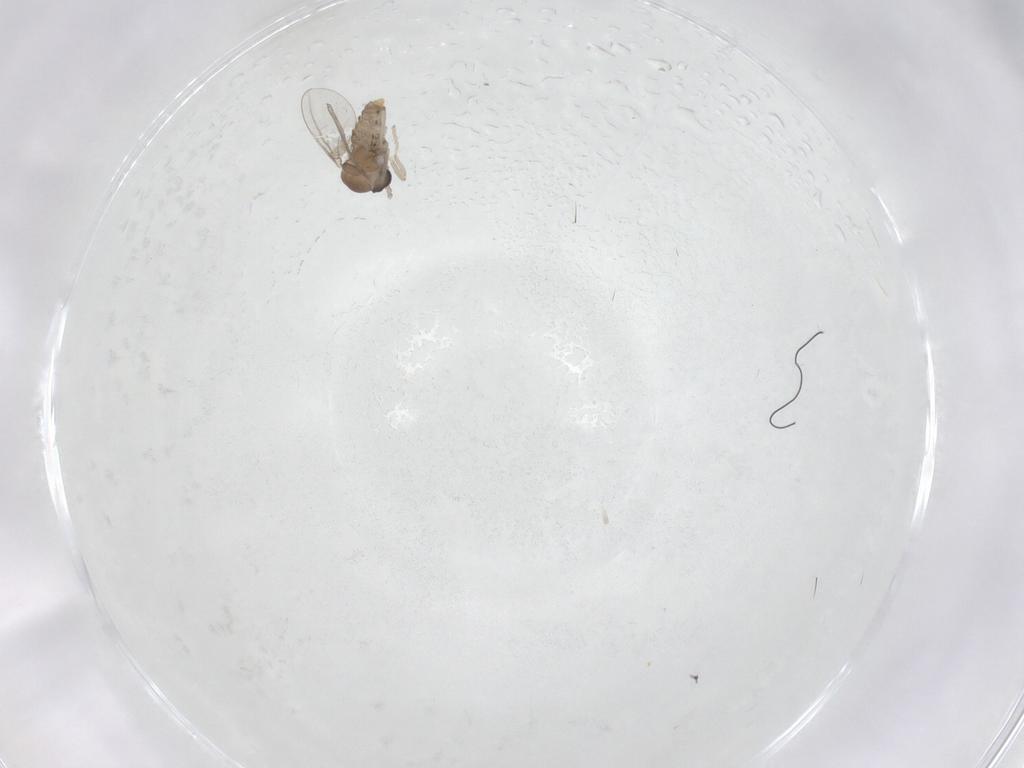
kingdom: Animalia
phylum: Arthropoda
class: Insecta
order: Diptera
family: Cecidomyiidae
